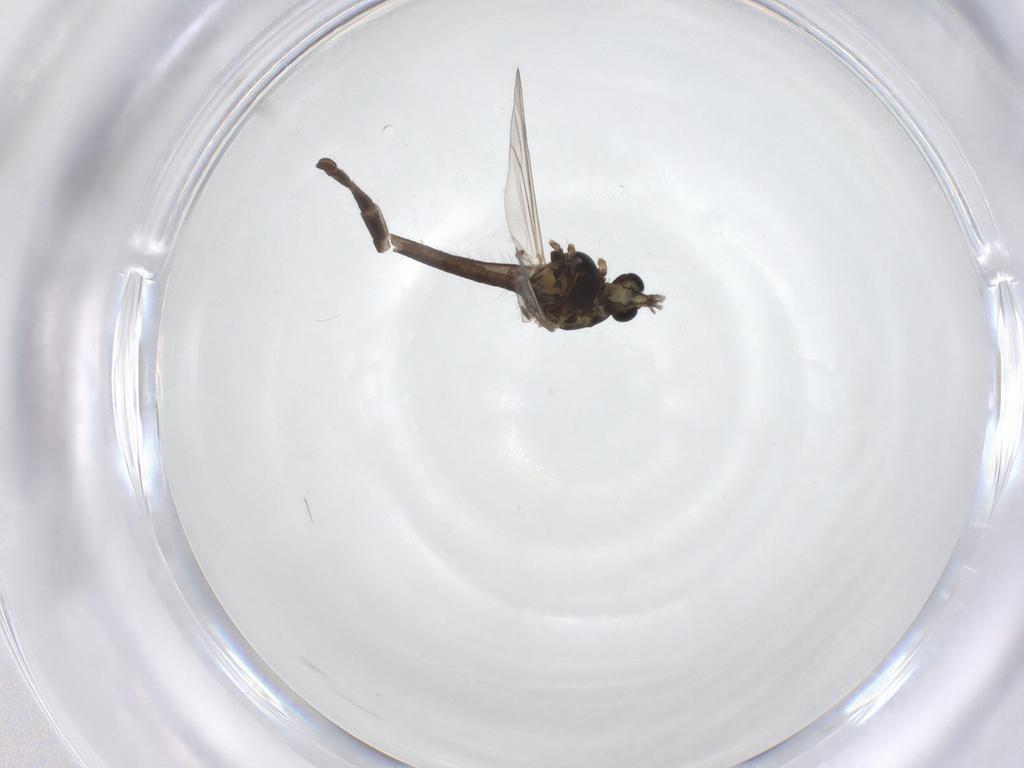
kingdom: Animalia
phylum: Arthropoda
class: Insecta
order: Diptera
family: Chironomidae
